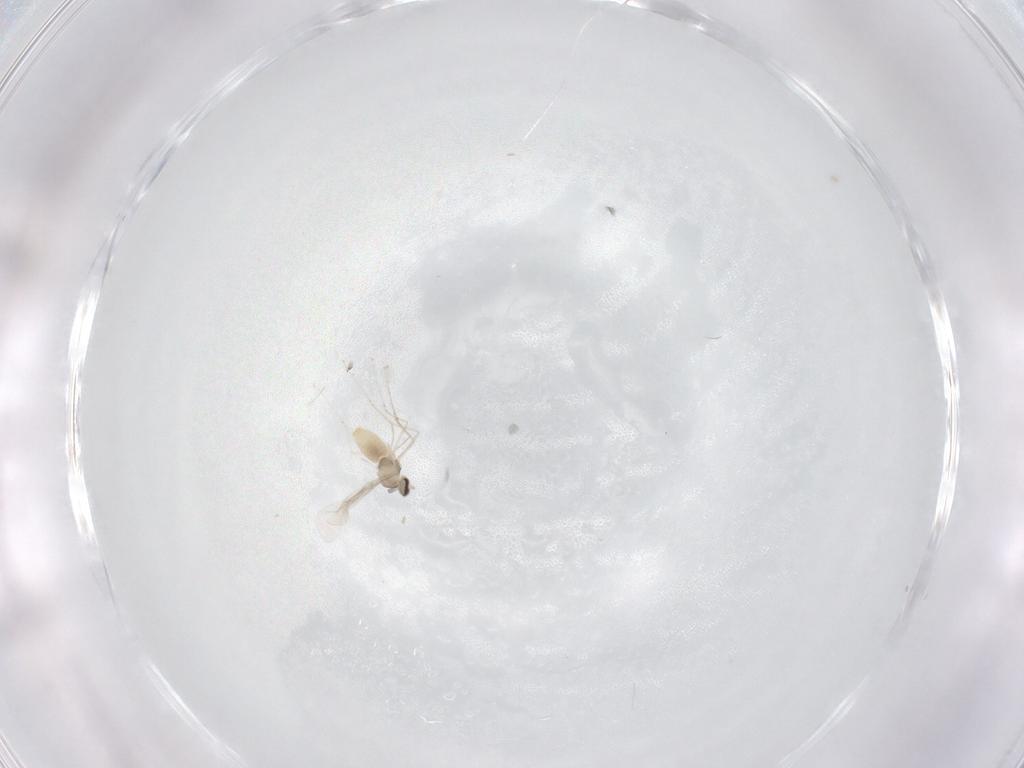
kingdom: Animalia
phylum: Arthropoda
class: Insecta
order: Diptera
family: Cecidomyiidae
